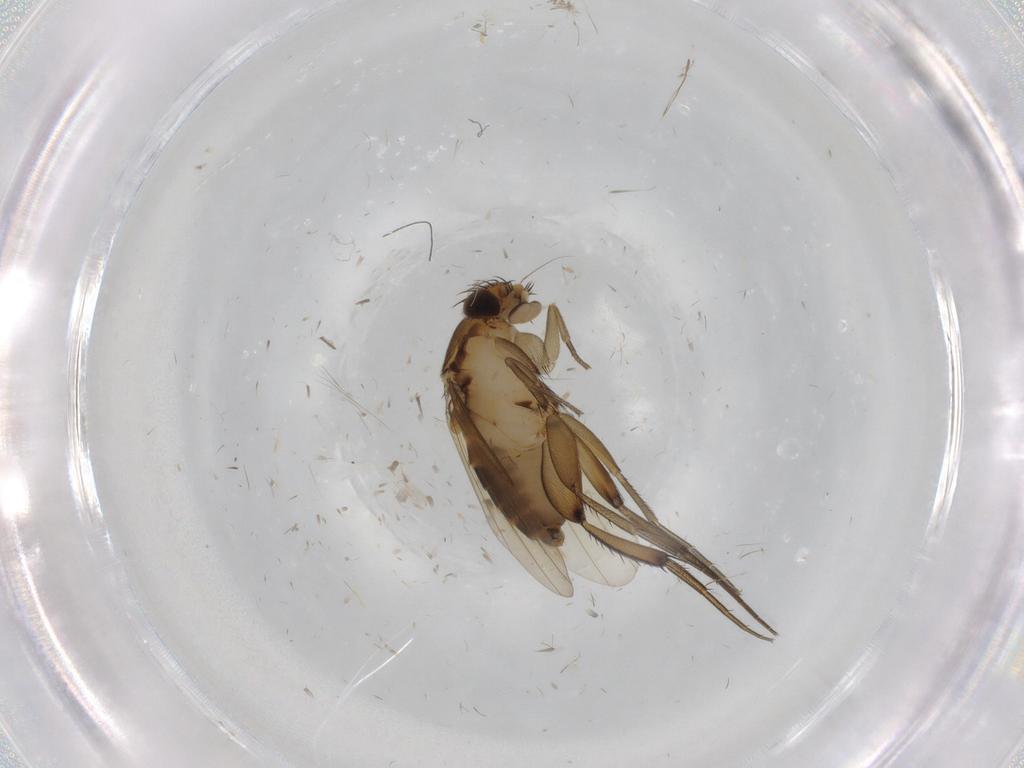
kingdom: Animalia
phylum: Arthropoda
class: Insecta
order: Diptera
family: Phoridae
